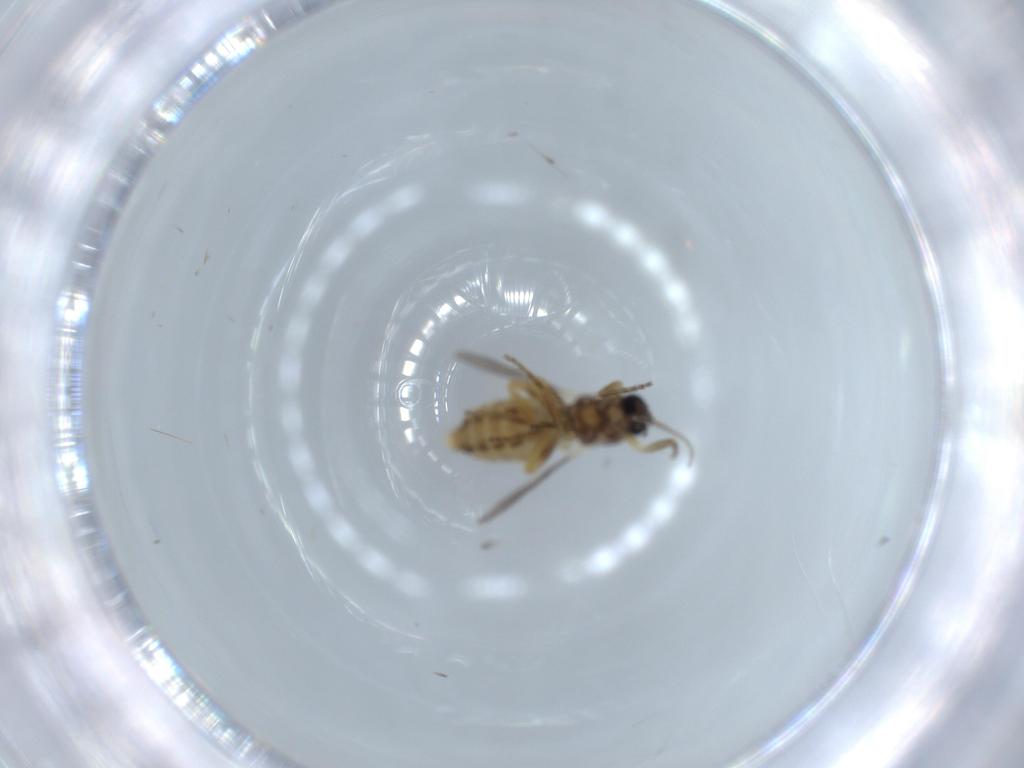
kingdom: Animalia
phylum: Arthropoda
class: Insecta
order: Diptera
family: Ceratopogonidae
